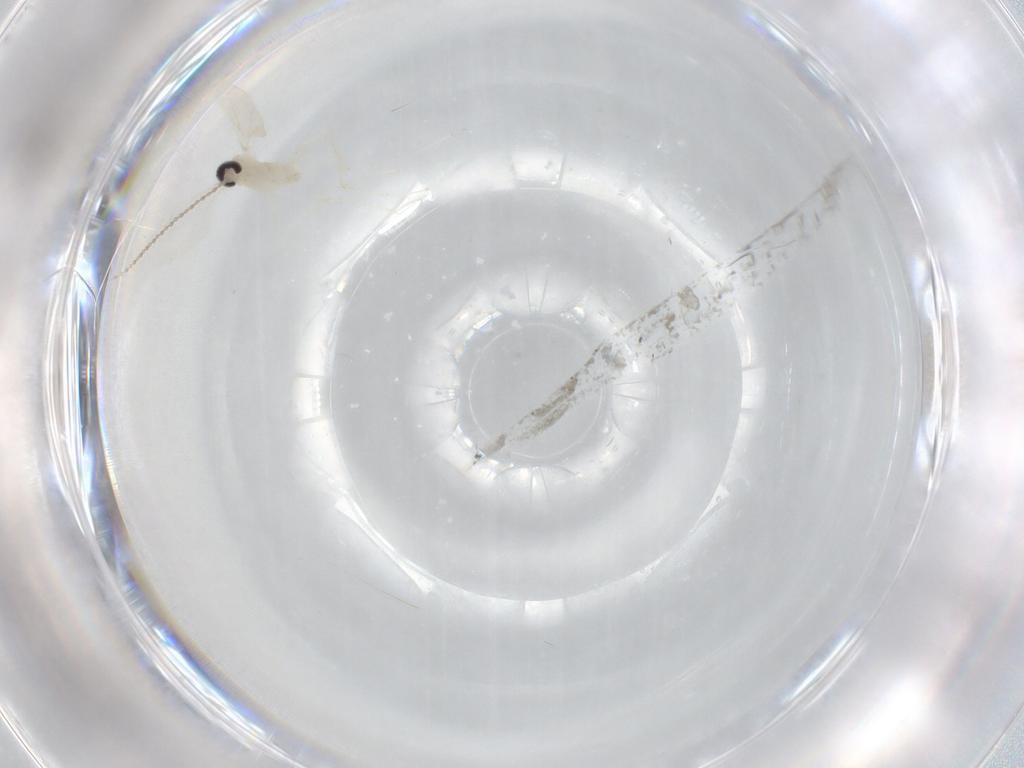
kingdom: Animalia
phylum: Arthropoda
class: Insecta
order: Diptera
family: Cecidomyiidae
